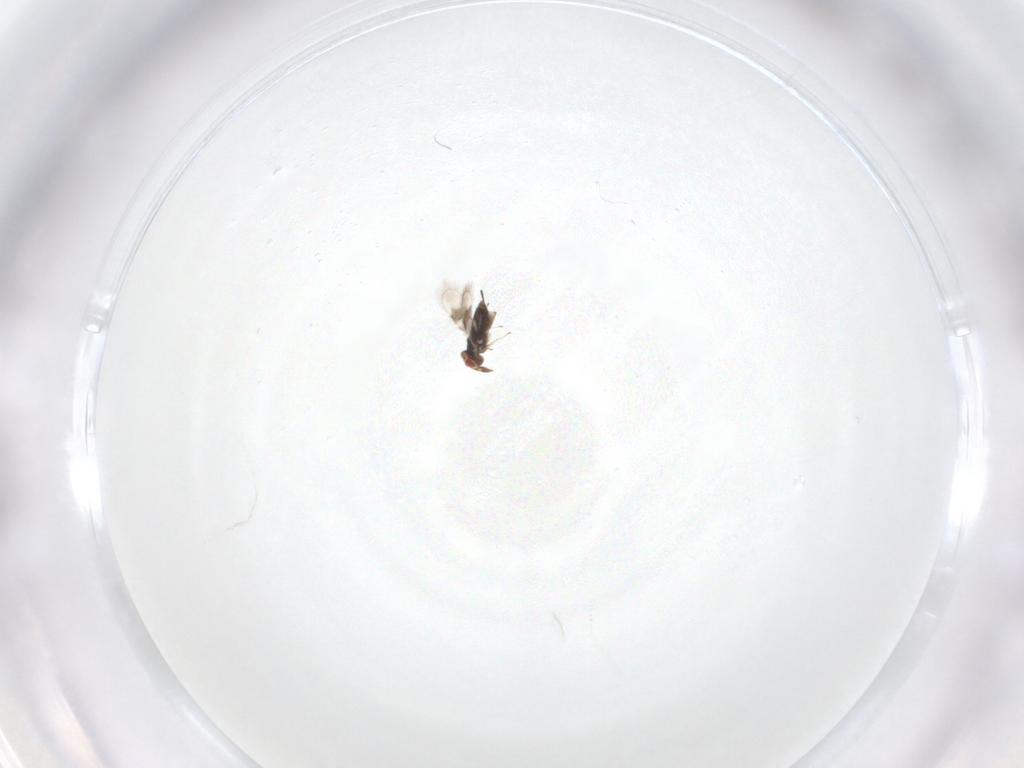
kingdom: Animalia
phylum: Arthropoda
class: Insecta
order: Hymenoptera
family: Azotidae
